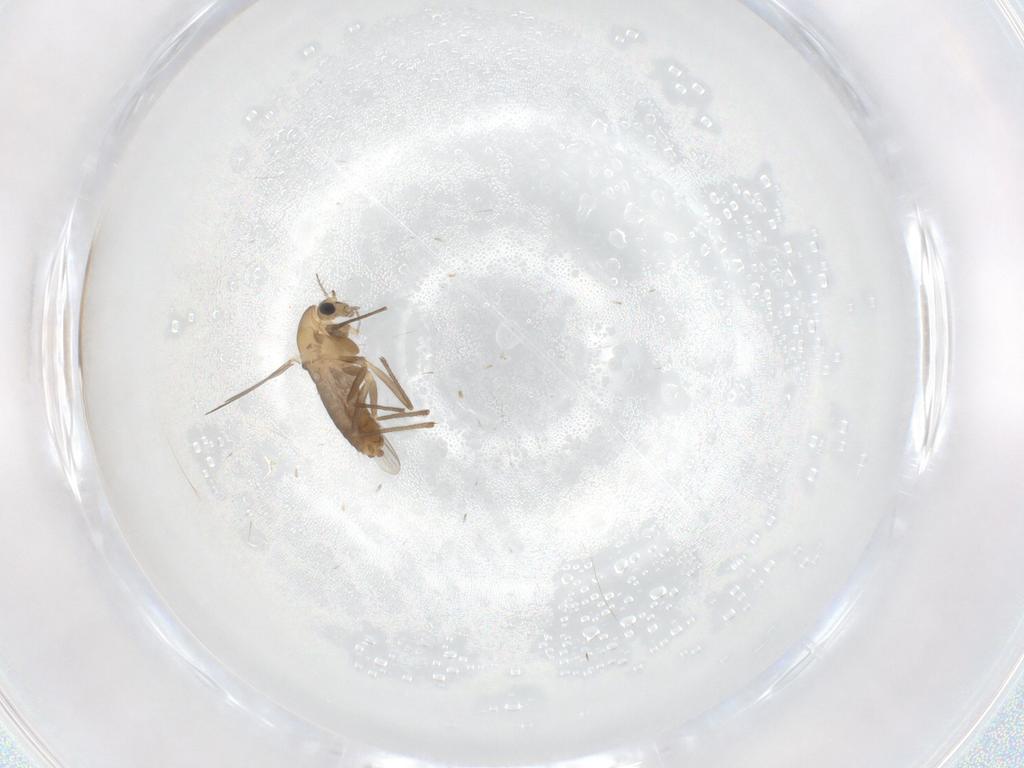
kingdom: Animalia
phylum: Arthropoda
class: Insecta
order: Diptera
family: Chironomidae
